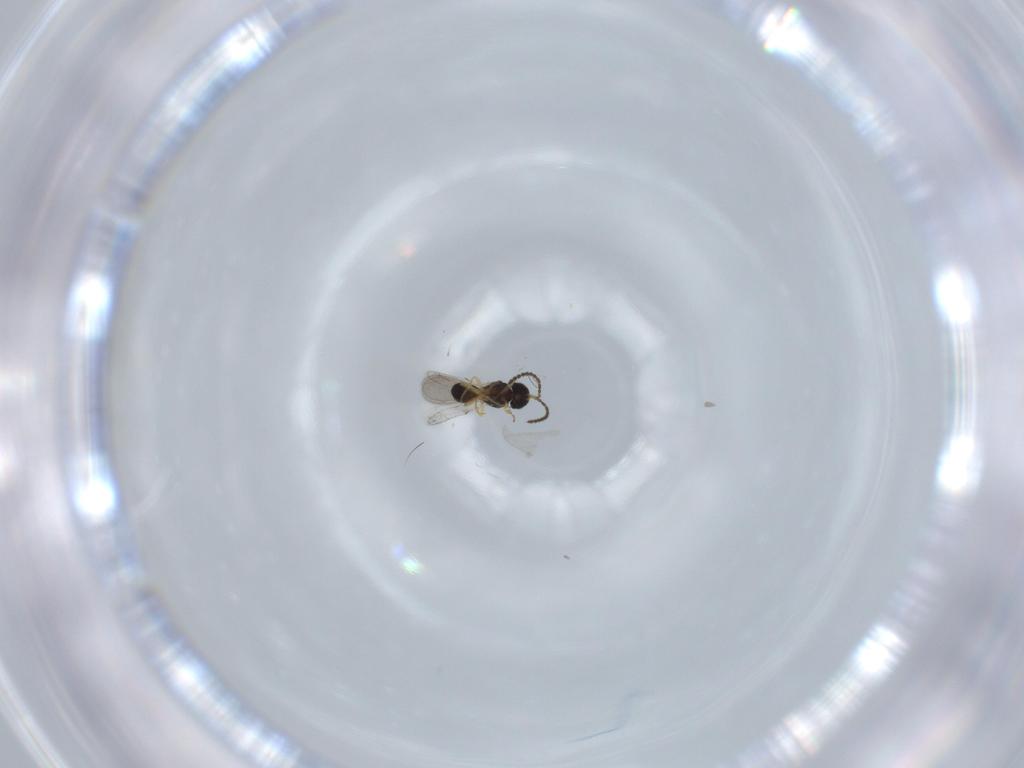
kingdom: Animalia
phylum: Arthropoda
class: Insecta
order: Hymenoptera
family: Scelionidae
